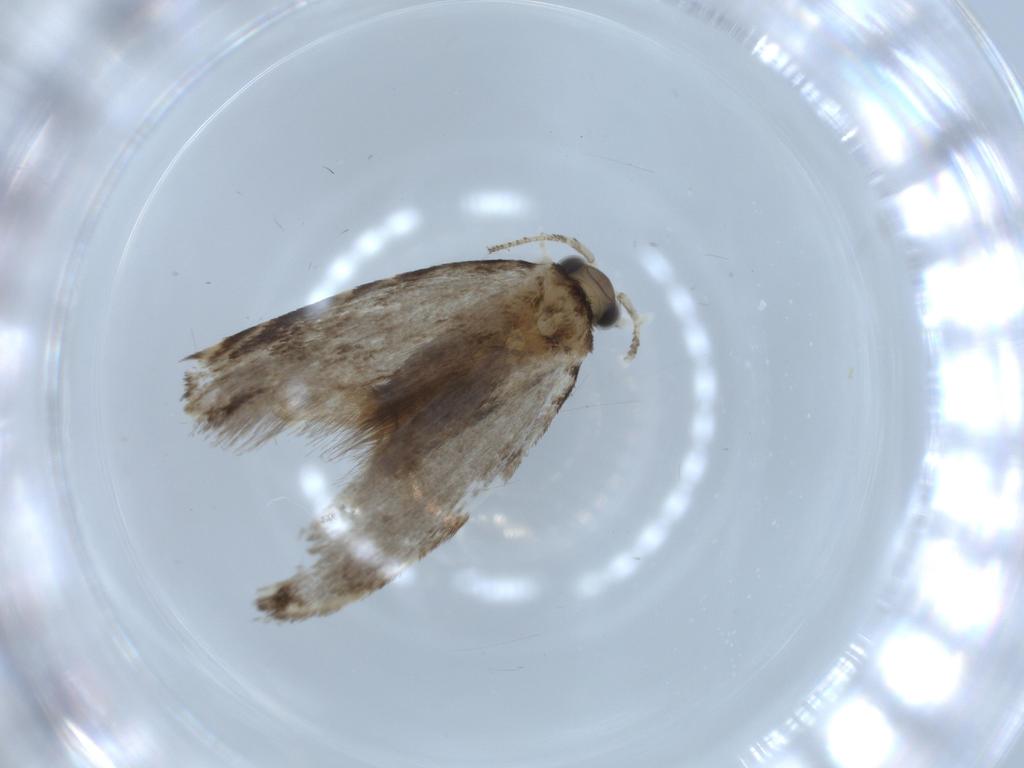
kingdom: Animalia
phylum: Arthropoda
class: Insecta
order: Lepidoptera
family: Tineidae
